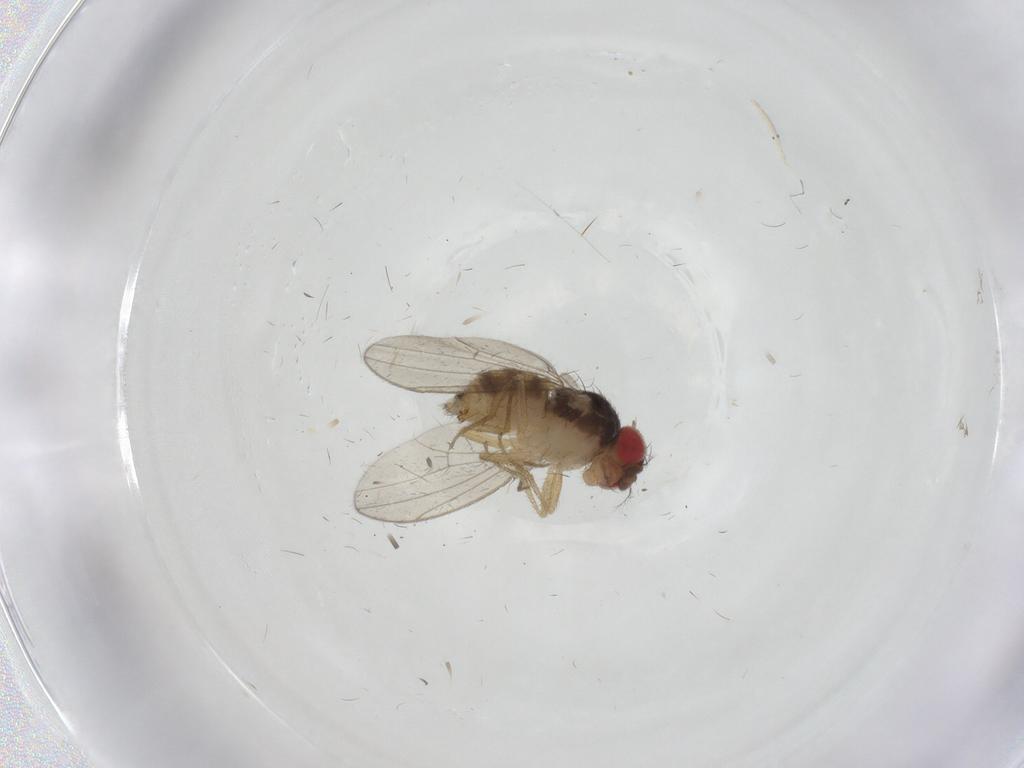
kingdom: Animalia
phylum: Arthropoda
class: Insecta
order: Diptera
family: Drosophilidae
